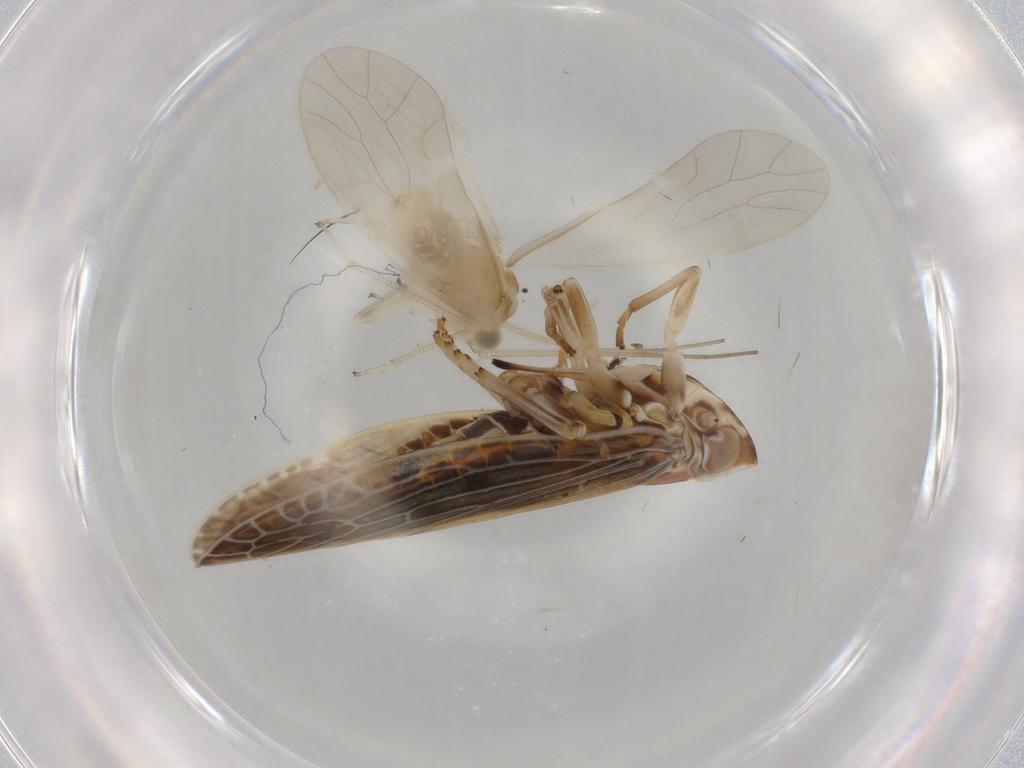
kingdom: Animalia
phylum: Arthropoda
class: Insecta
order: Hemiptera
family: Achilidae
